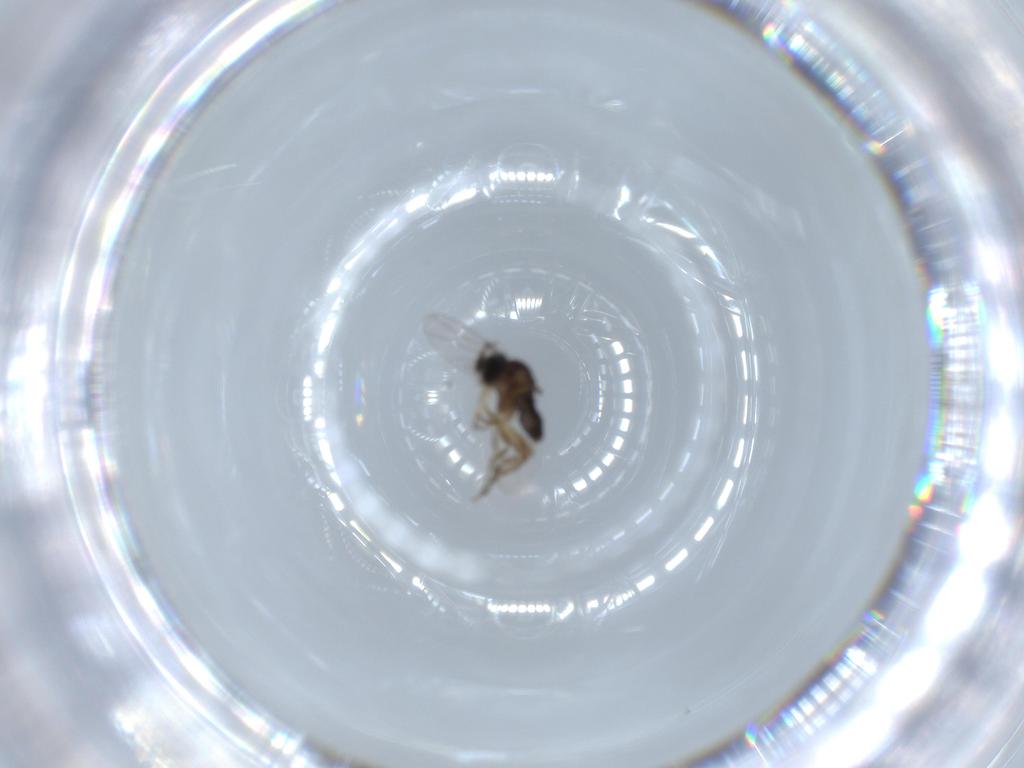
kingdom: Animalia
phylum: Arthropoda
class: Insecta
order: Diptera
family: Phoridae
